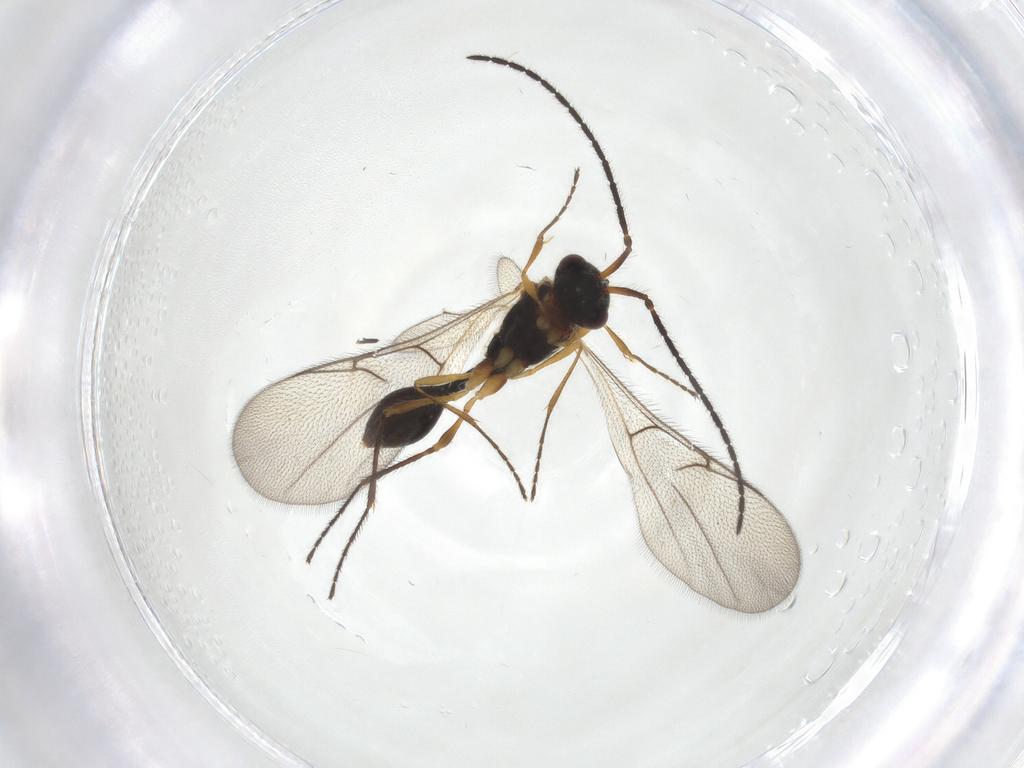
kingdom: Animalia
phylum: Arthropoda
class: Insecta
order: Hymenoptera
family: Diapriidae
